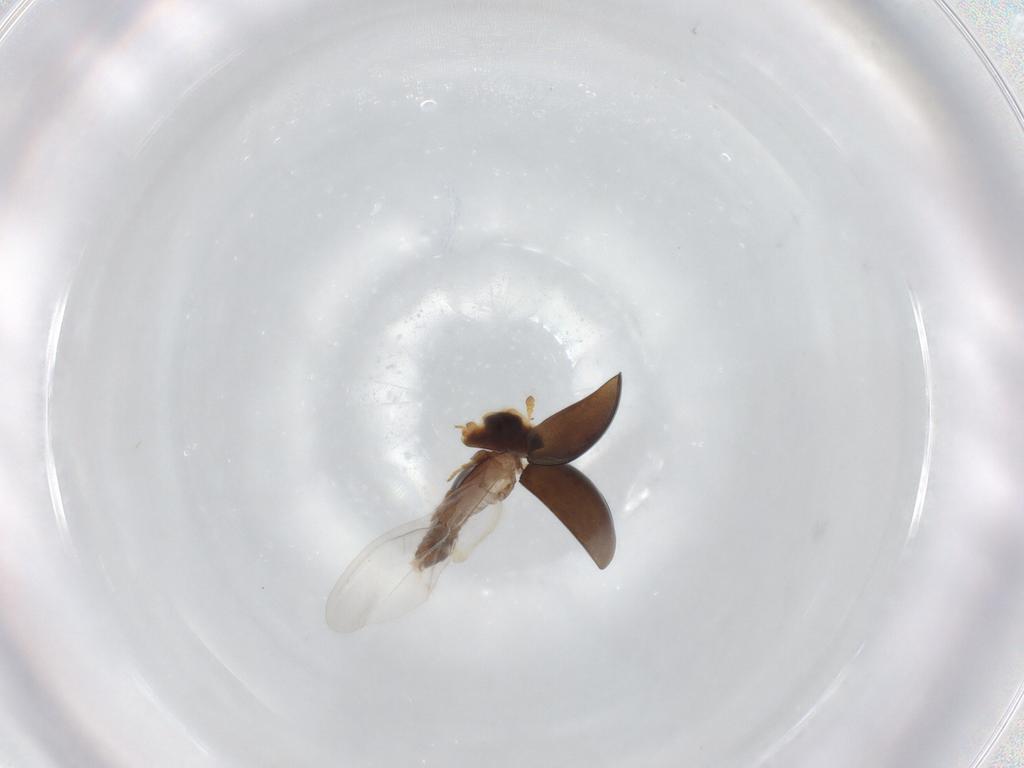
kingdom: Animalia
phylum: Arthropoda
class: Insecta
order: Coleoptera
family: Corylophidae
